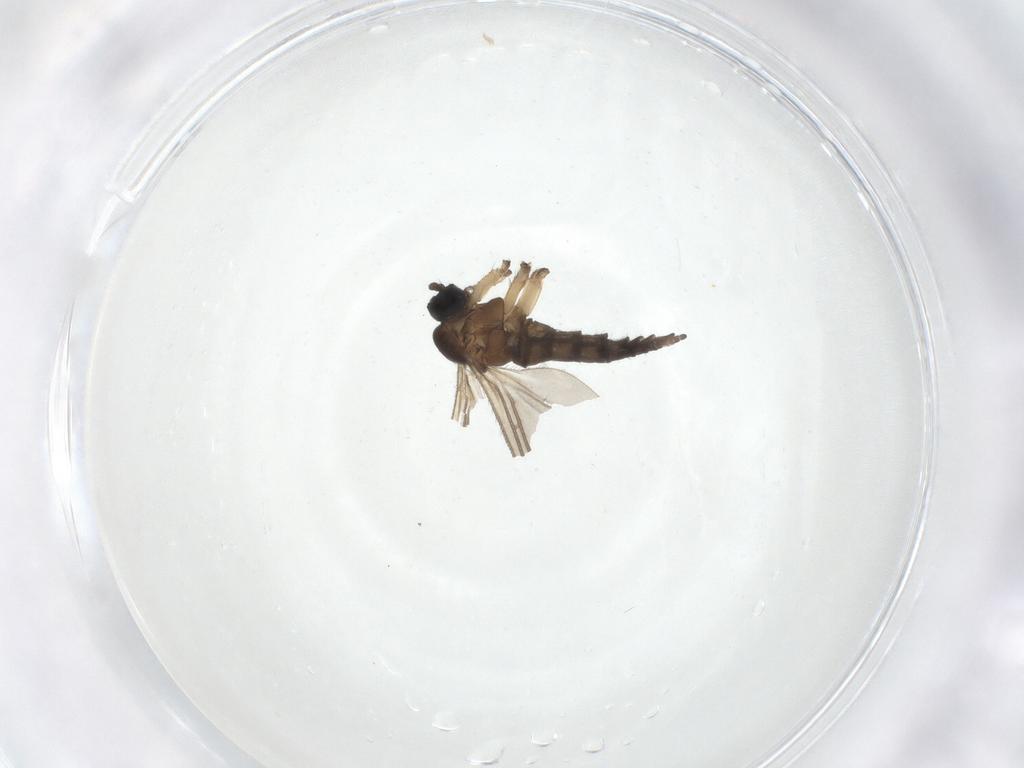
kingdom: Animalia
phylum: Arthropoda
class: Insecta
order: Diptera
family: Sciaridae
